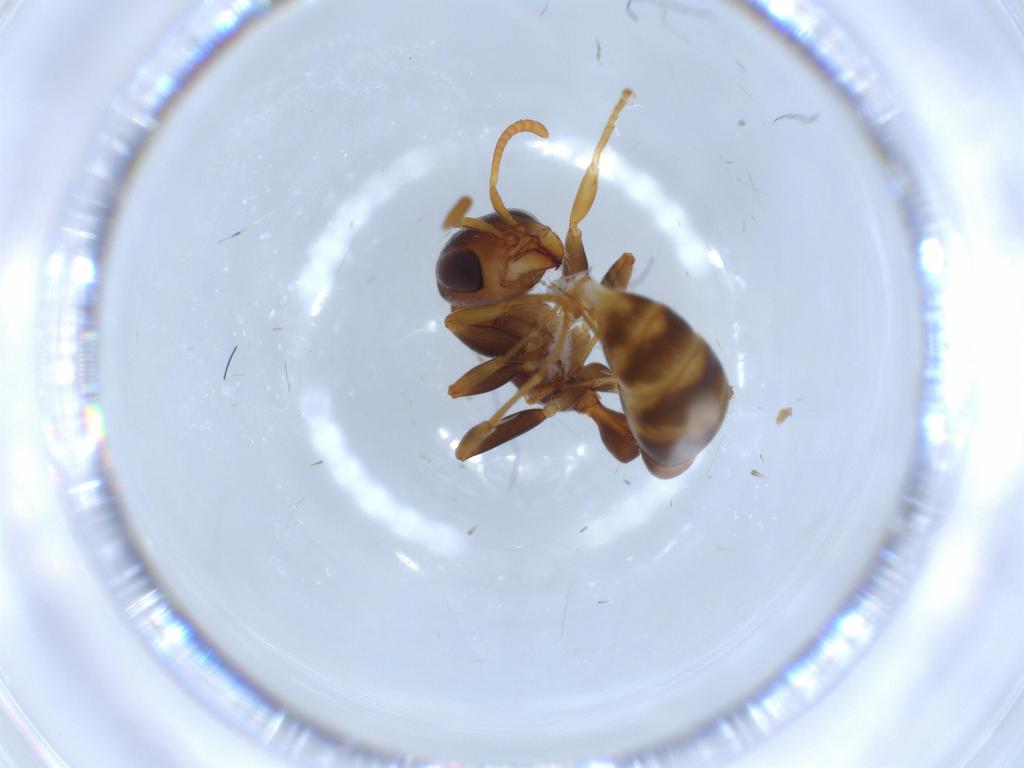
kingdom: Animalia
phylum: Arthropoda
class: Insecta
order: Hymenoptera
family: Formicidae
